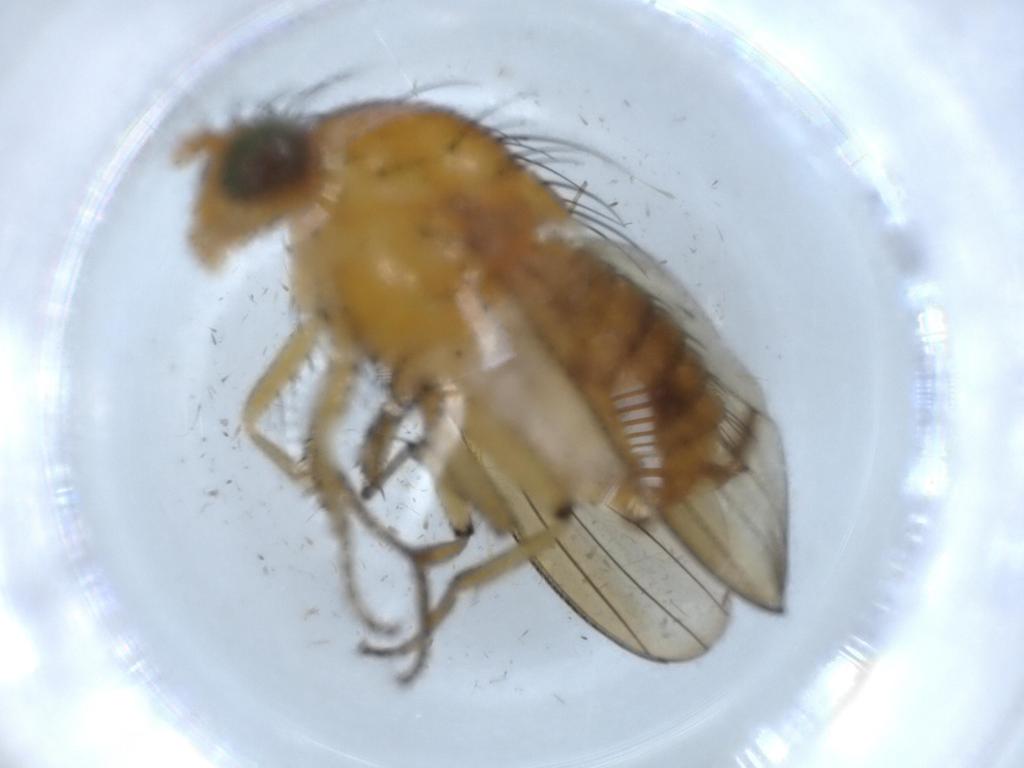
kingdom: Animalia
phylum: Arthropoda
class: Insecta
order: Diptera
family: Sciaridae
